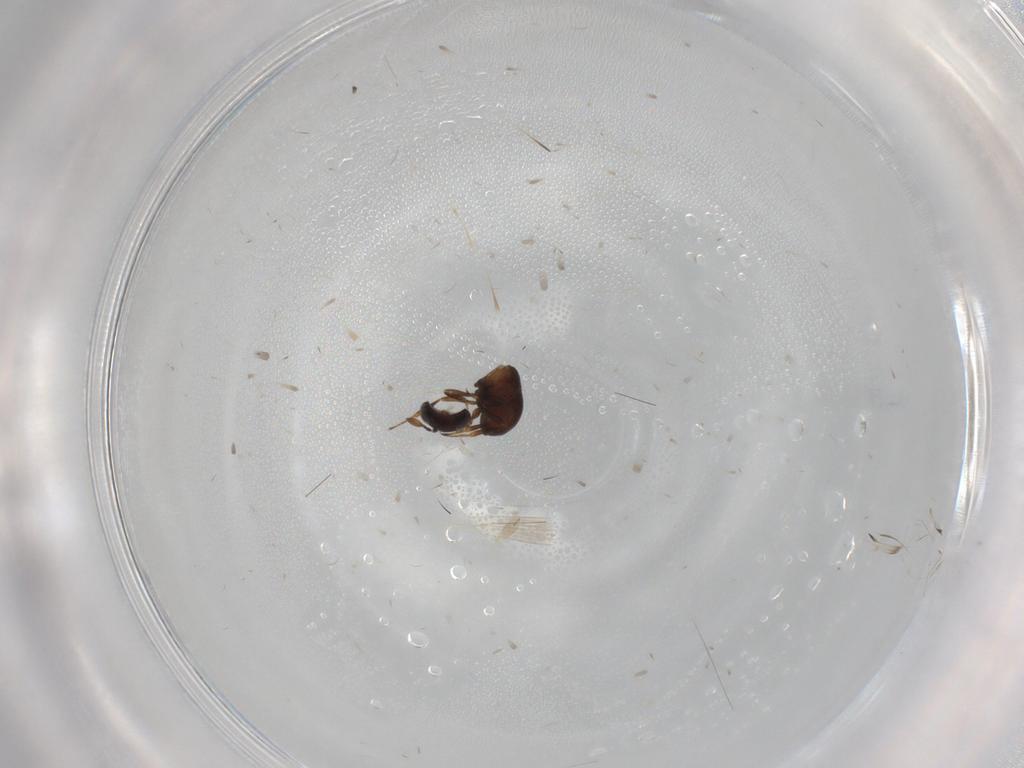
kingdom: Animalia
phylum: Arthropoda
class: Insecta
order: Hymenoptera
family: Scelionidae
